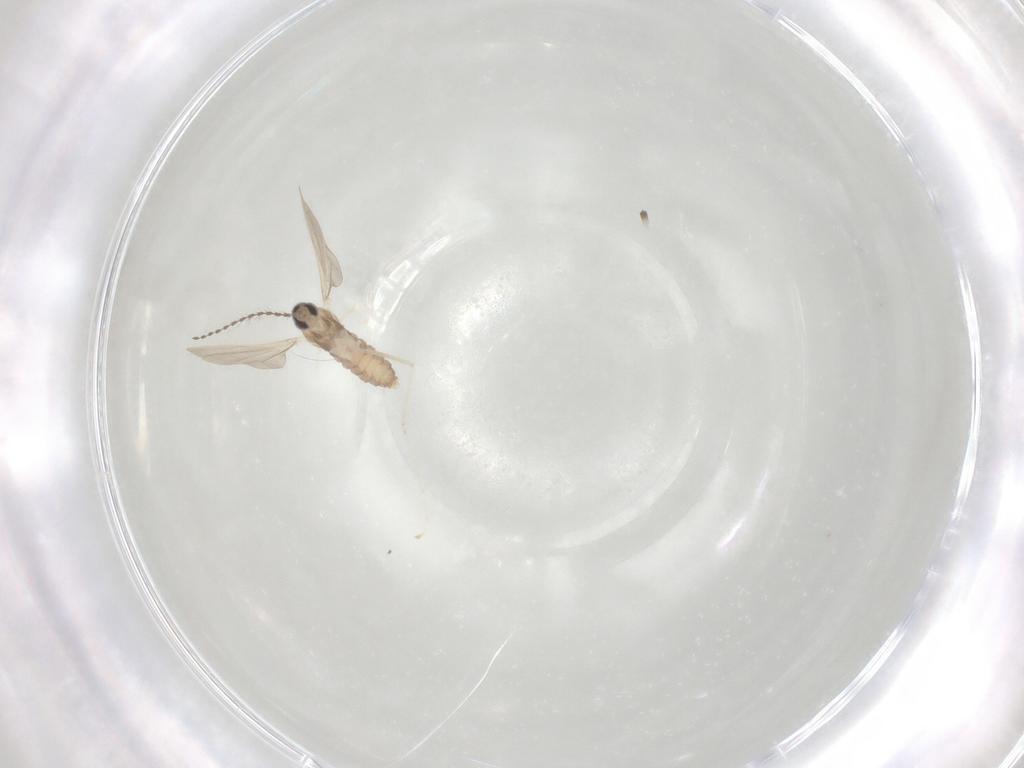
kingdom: Animalia
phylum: Arthropoda
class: Insecta
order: Diptera
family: Cecidomyiidae
